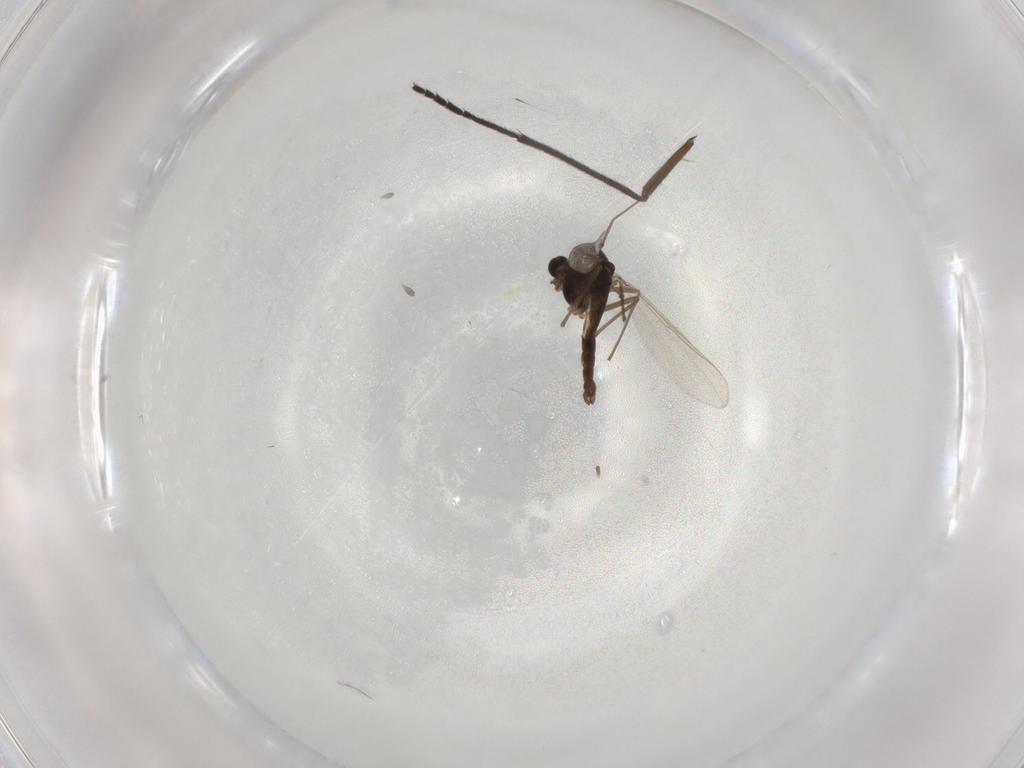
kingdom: Animalia
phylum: Arthropoda
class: Insecta
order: Diptera
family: Chironomidae
